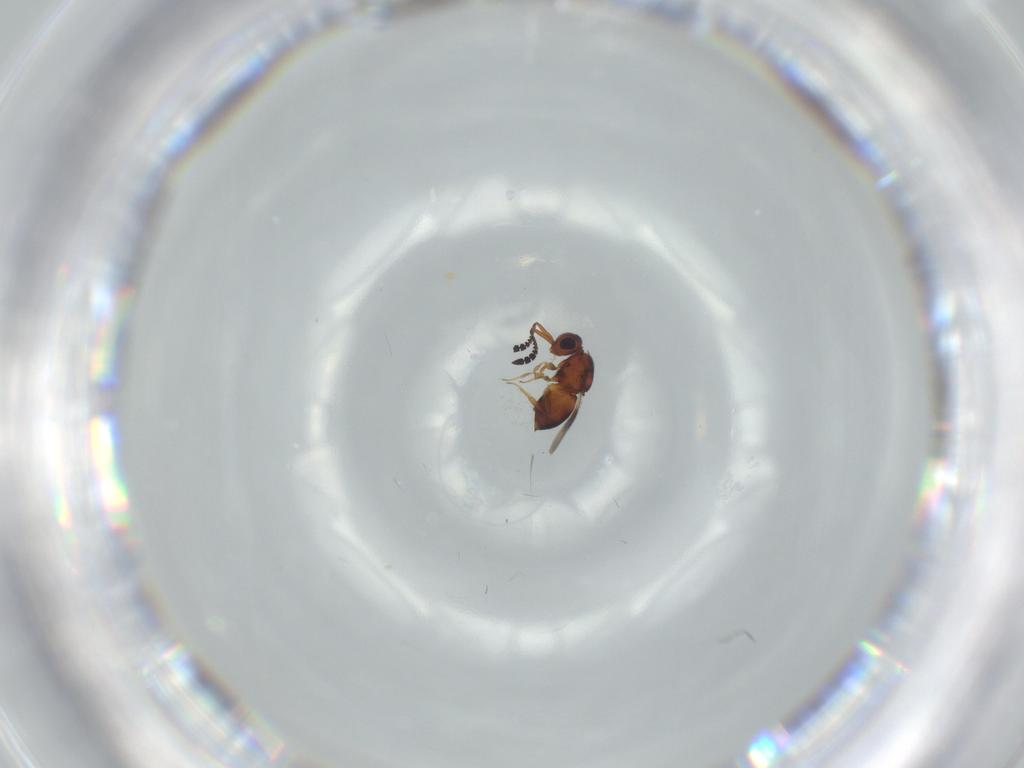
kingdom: Animalia
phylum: Arthropoda
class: Insecta
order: Hymenoptera
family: Ceraphronidae
